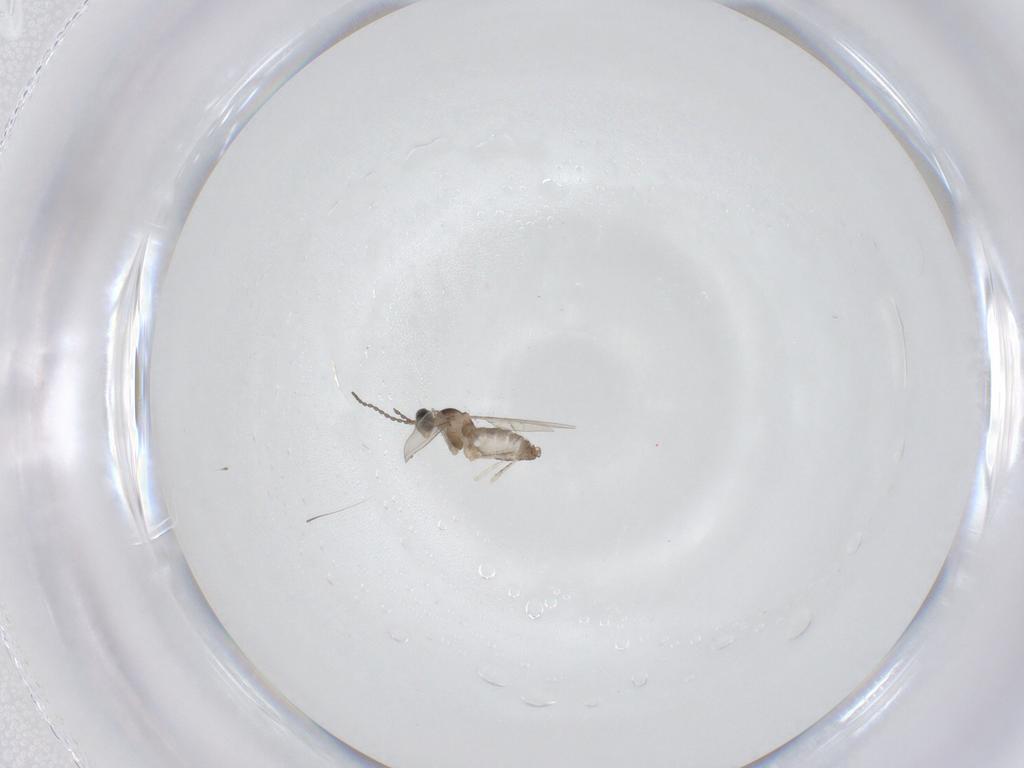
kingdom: Animalia
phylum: Arthropoda
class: Insecta
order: Diptera
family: Cecidomyiidae
